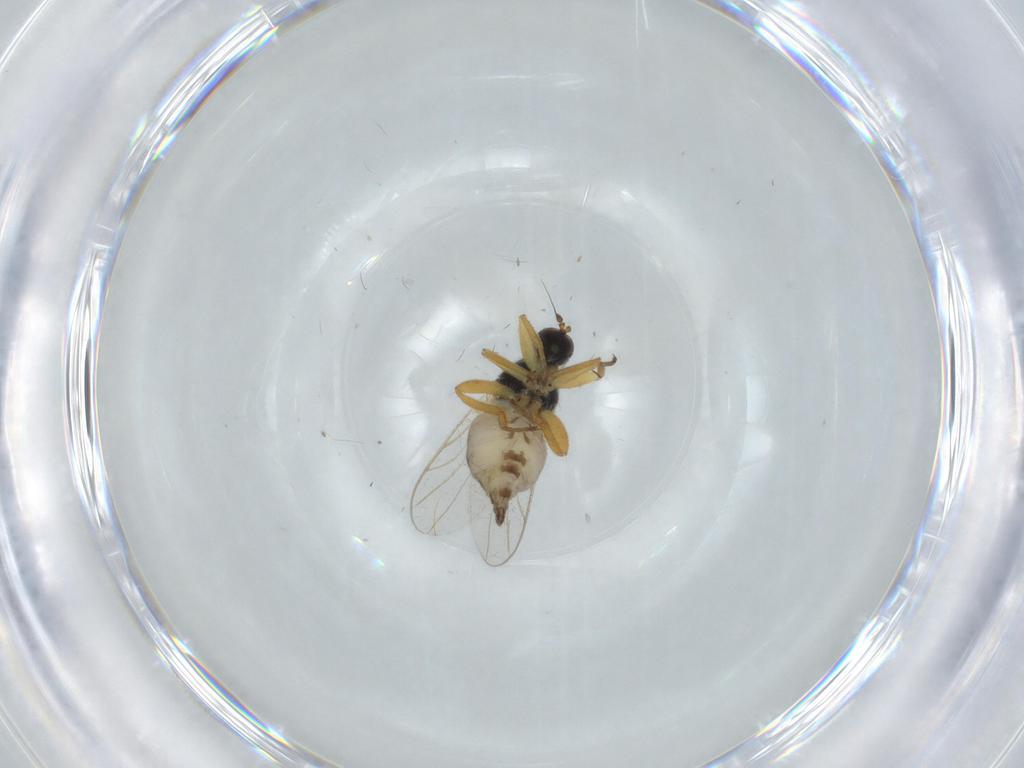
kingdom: Animalia
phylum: Arthropoda
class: Insecta
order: Diptera
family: Hybotidae
